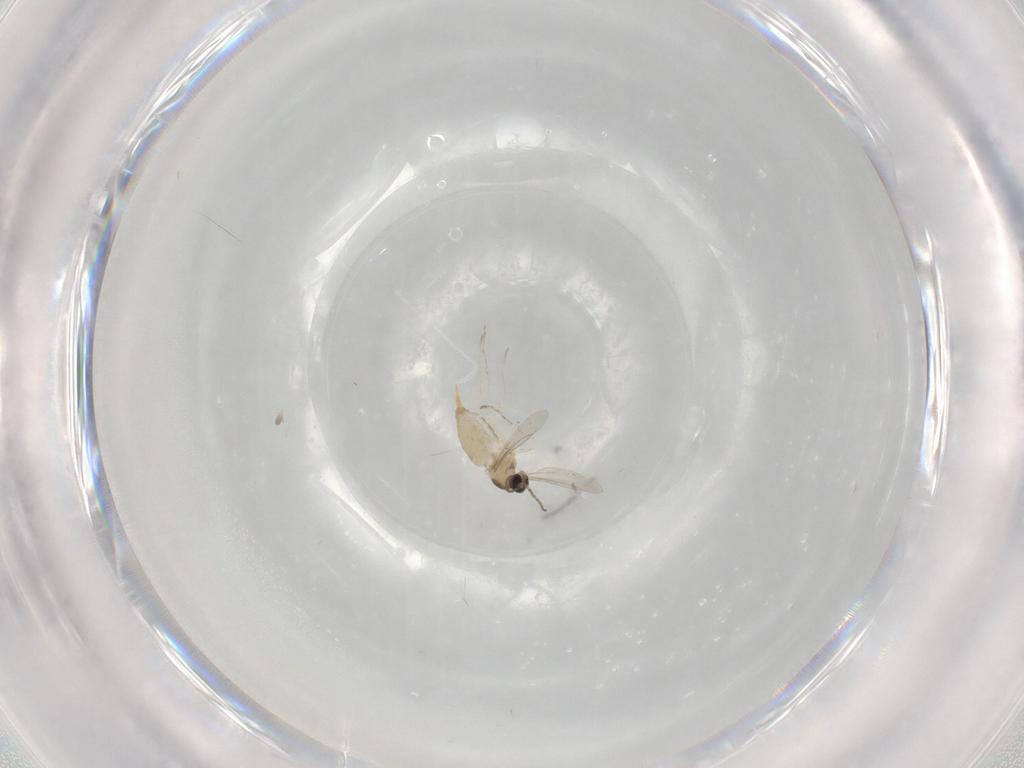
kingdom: Animalia
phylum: Arthropoda
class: Insecta
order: Diptera
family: Cecidomyiidae
